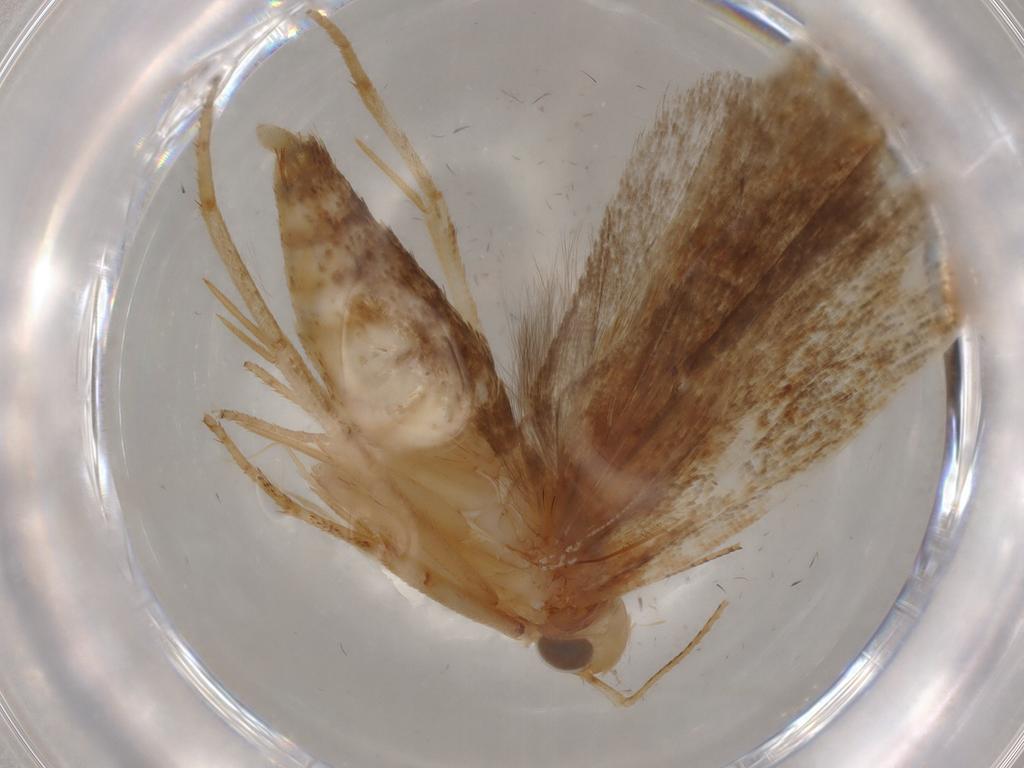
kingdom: Animalia
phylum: Arthropoda
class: Insecta
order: Lepidoptera
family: Gelechiidae
